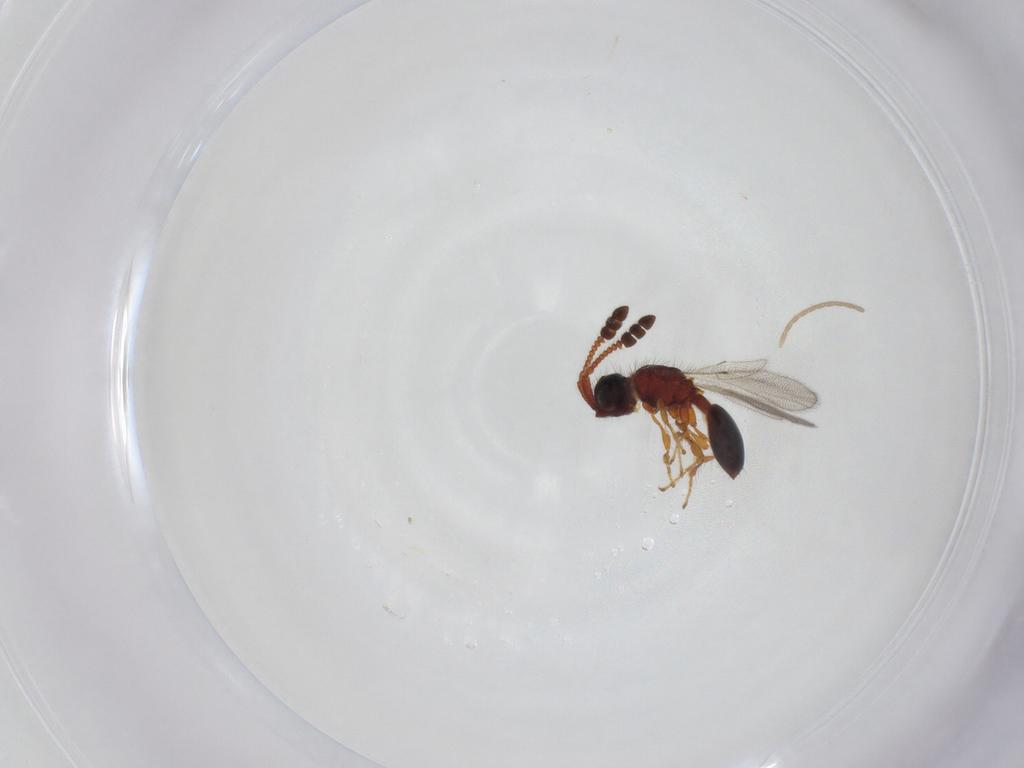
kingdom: Animalia
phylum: Arthropoda
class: Insecta
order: Hymenoptera
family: Diapriidae
